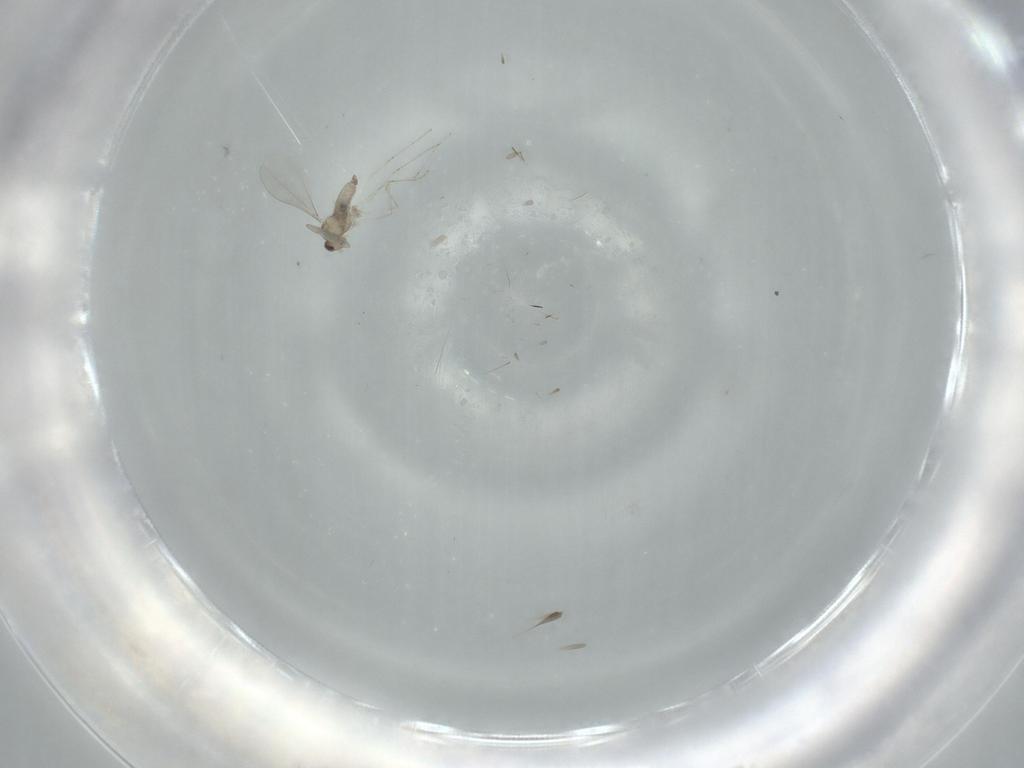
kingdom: Animalia
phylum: Arthropoda
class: Insecta
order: Diptera
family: Cecidomyiidae
